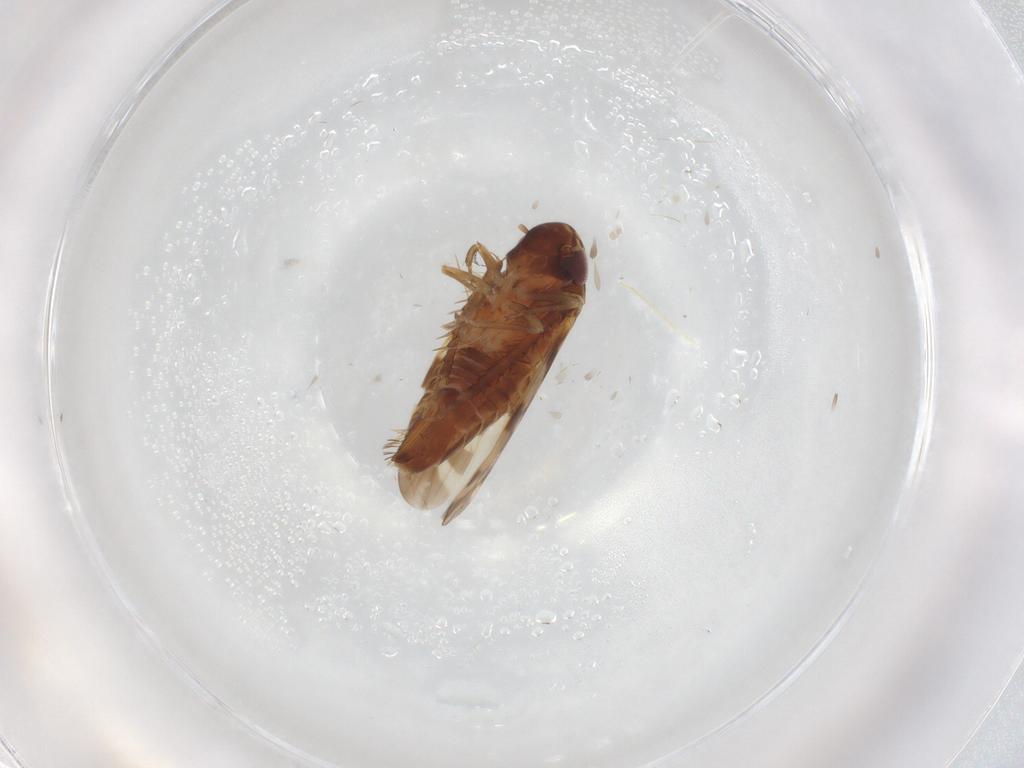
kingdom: Animalia
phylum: Arthropoda
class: Insecta
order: Hemiptera
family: Cicadellidae
